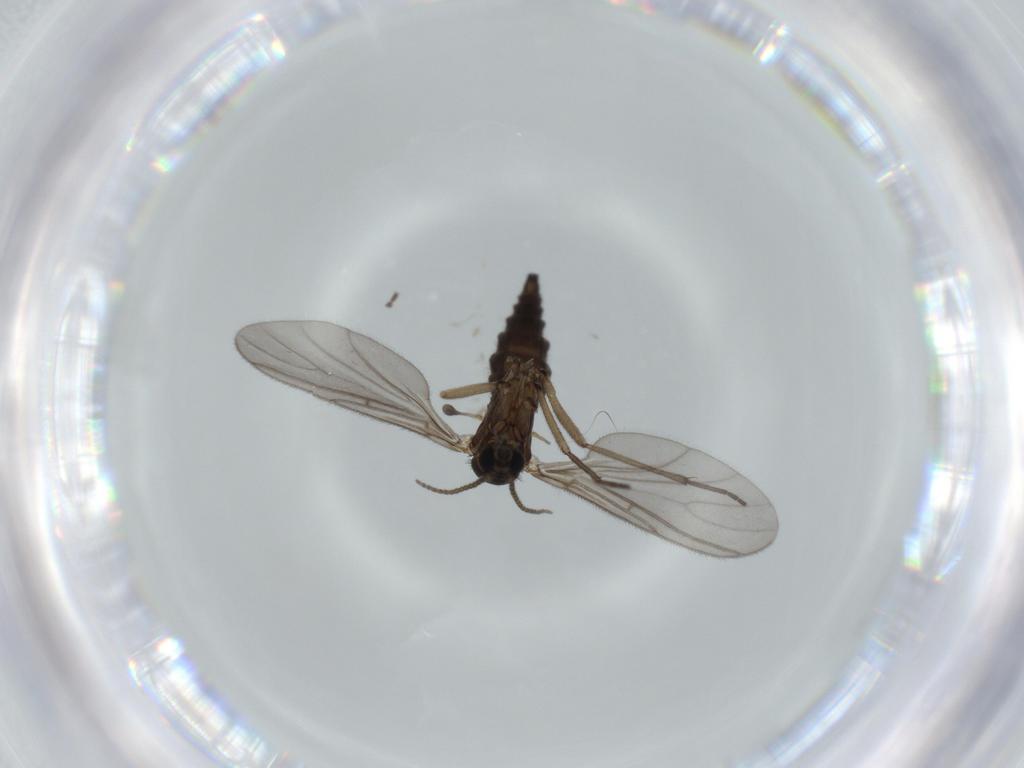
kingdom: Animalia
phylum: Arthropoda
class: Insecta
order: Diptera
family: Sciaridae
